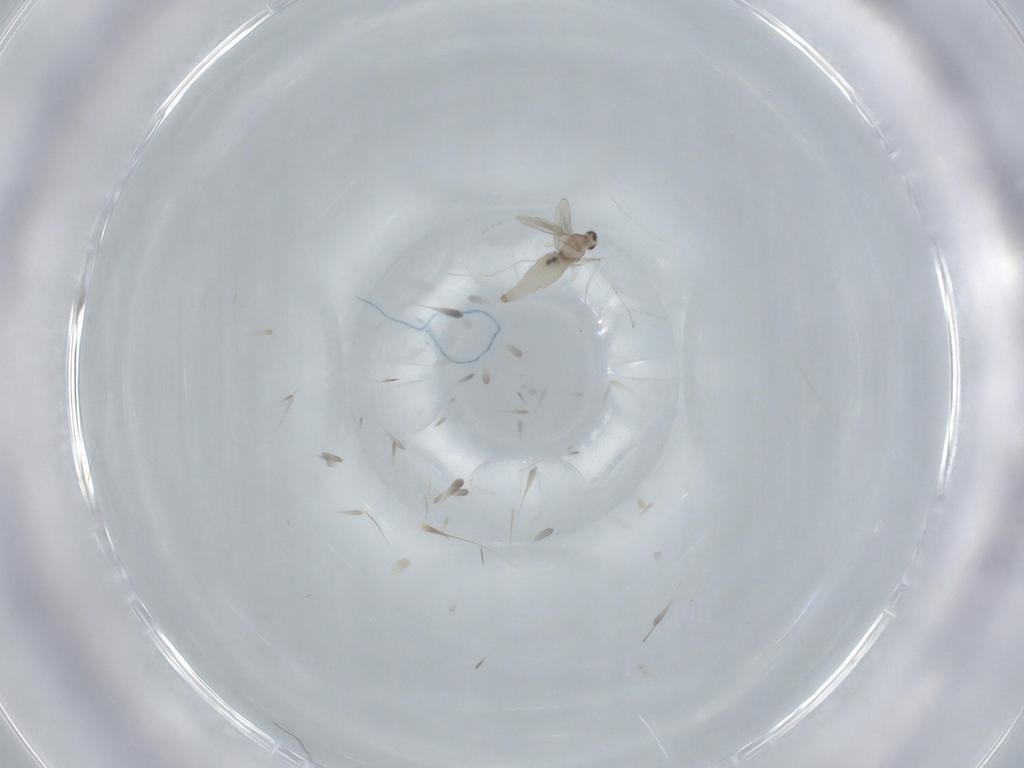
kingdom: Animalia
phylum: Arthropoda
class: Insecta
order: Diptera
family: Cecidomyiidae
